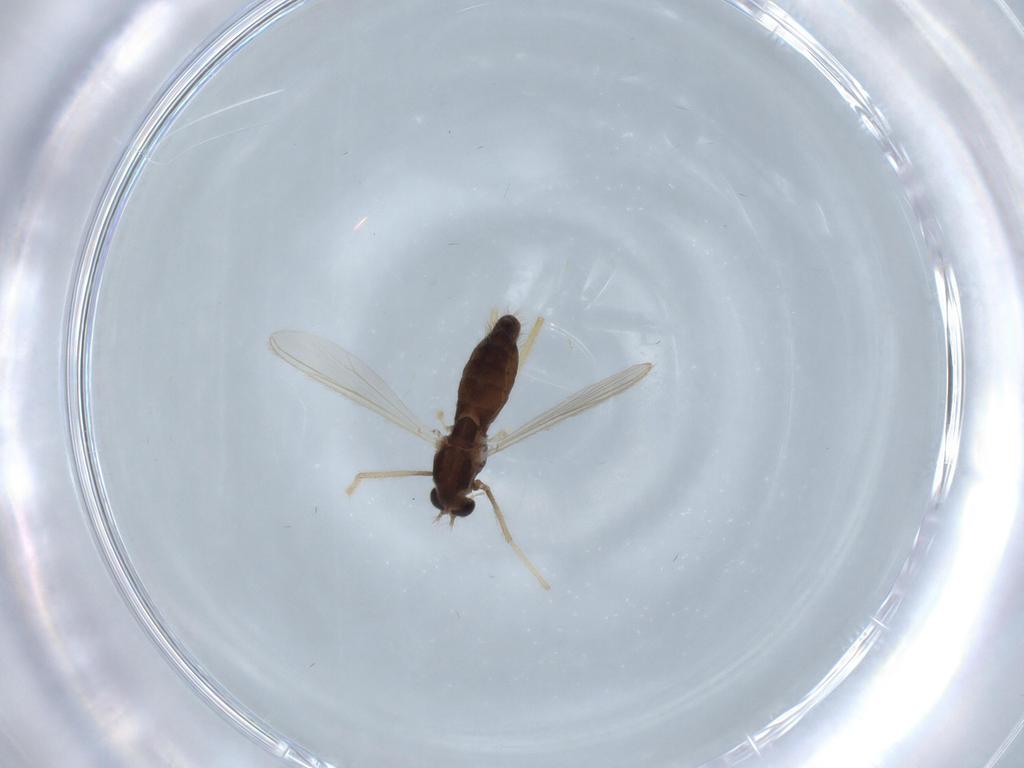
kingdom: Animalia
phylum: Arthropoda
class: Insecta
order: Diptera
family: Chironomidae
